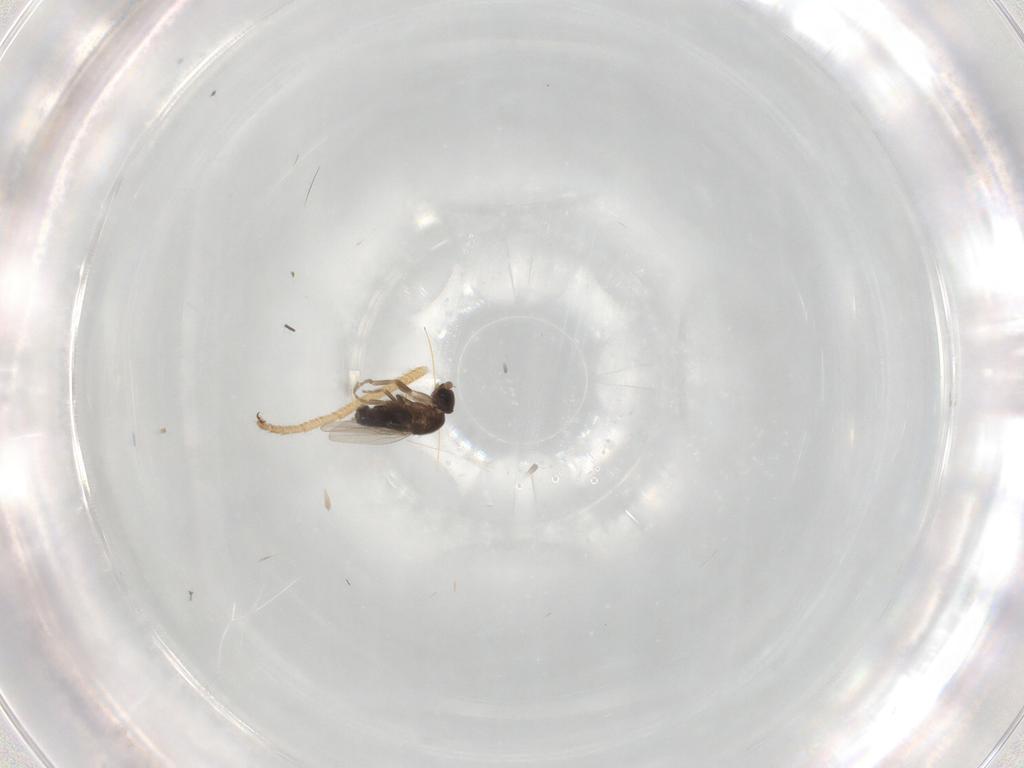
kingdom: Animalia
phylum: Arthropoda
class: Insecta
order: Diptera
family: Phoridae
